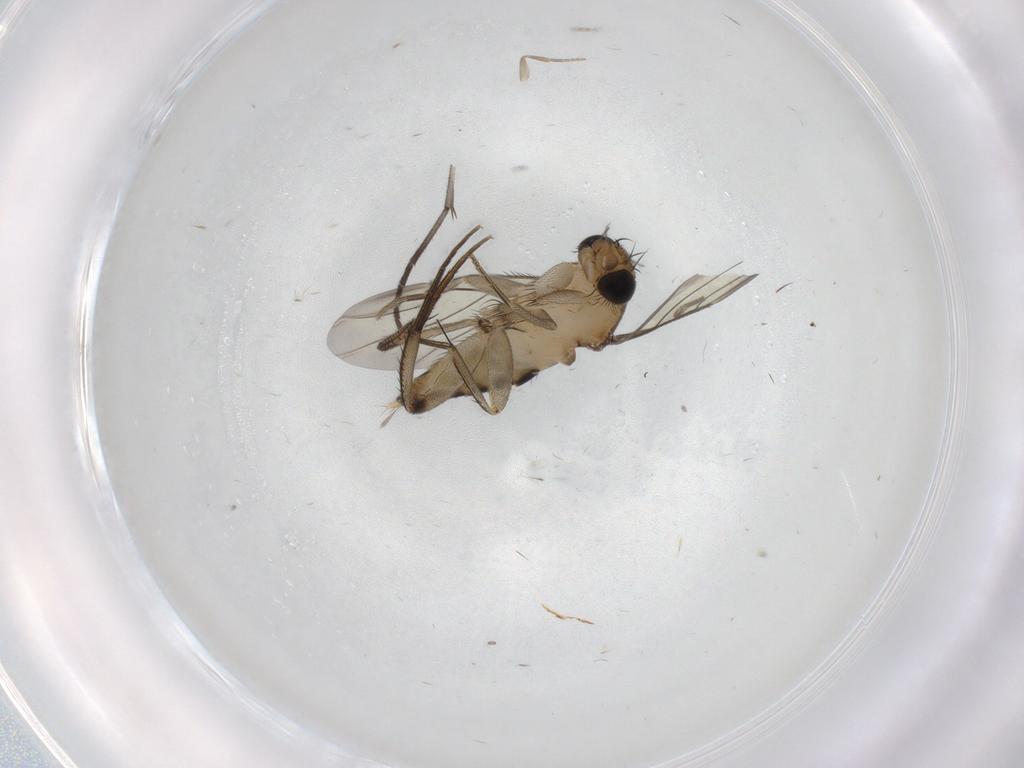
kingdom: Animalia
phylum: Arthropoda
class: Insecta
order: Diptera
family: Phoridae
